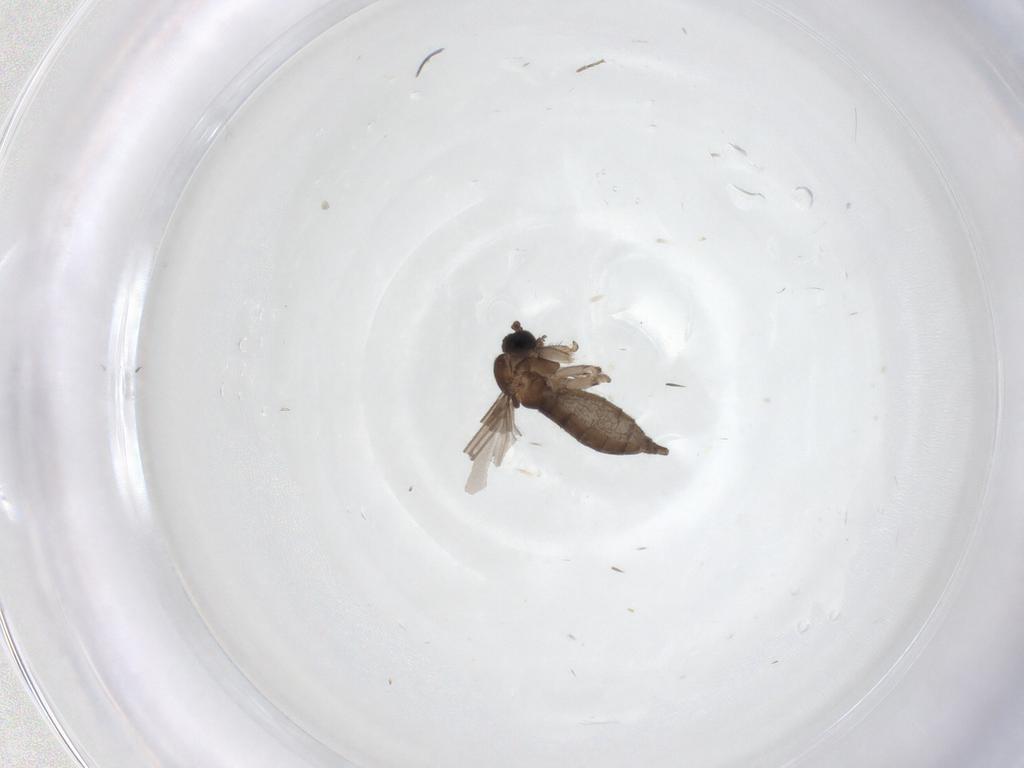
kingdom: Animalia
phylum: Arthropoda
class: Insecta
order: Diptera
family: Sciaridae
